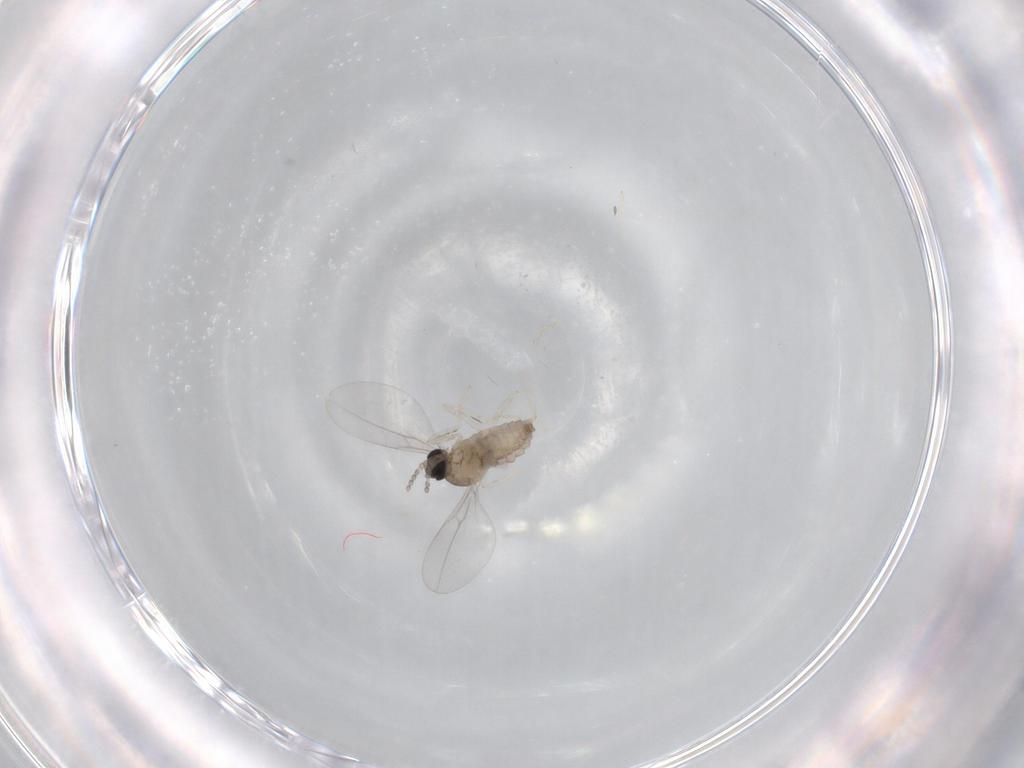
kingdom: Animalia
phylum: Arthropoda
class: Insecta
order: Diptera
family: Cecidomyiidae
